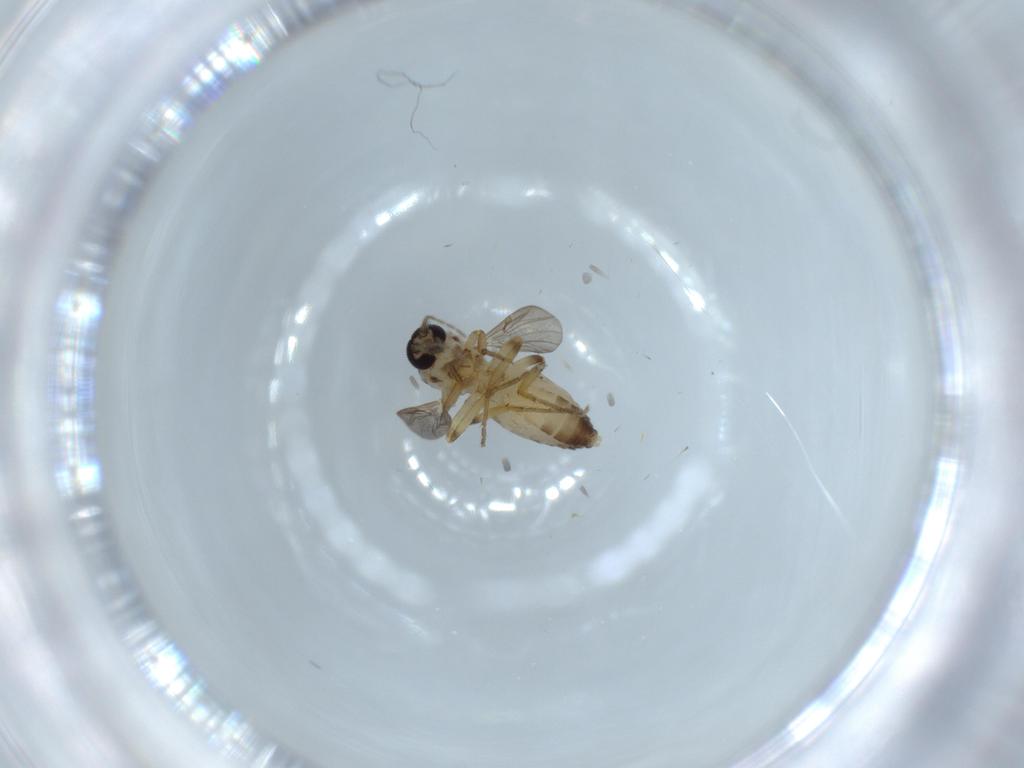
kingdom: Animalia
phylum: Arthropoda
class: Insecta
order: Diptera
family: Ceratopogonidae
